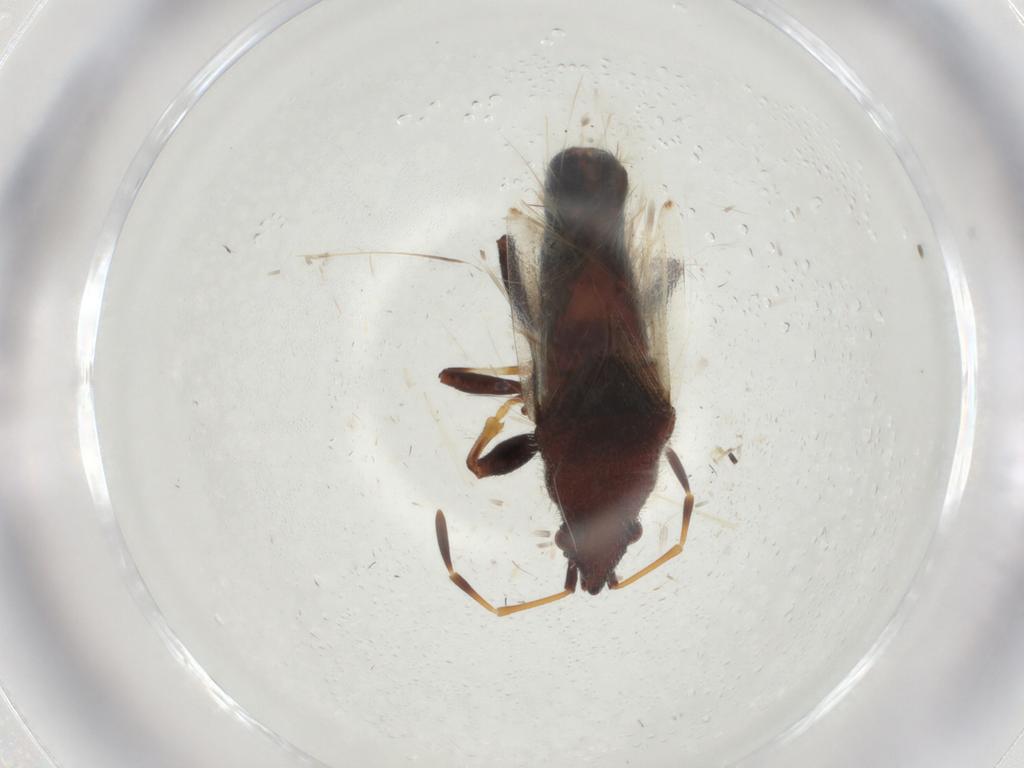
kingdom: Animalia
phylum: Arthropoda
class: Insecta
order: Hemiptera
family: Oxycarenidae
